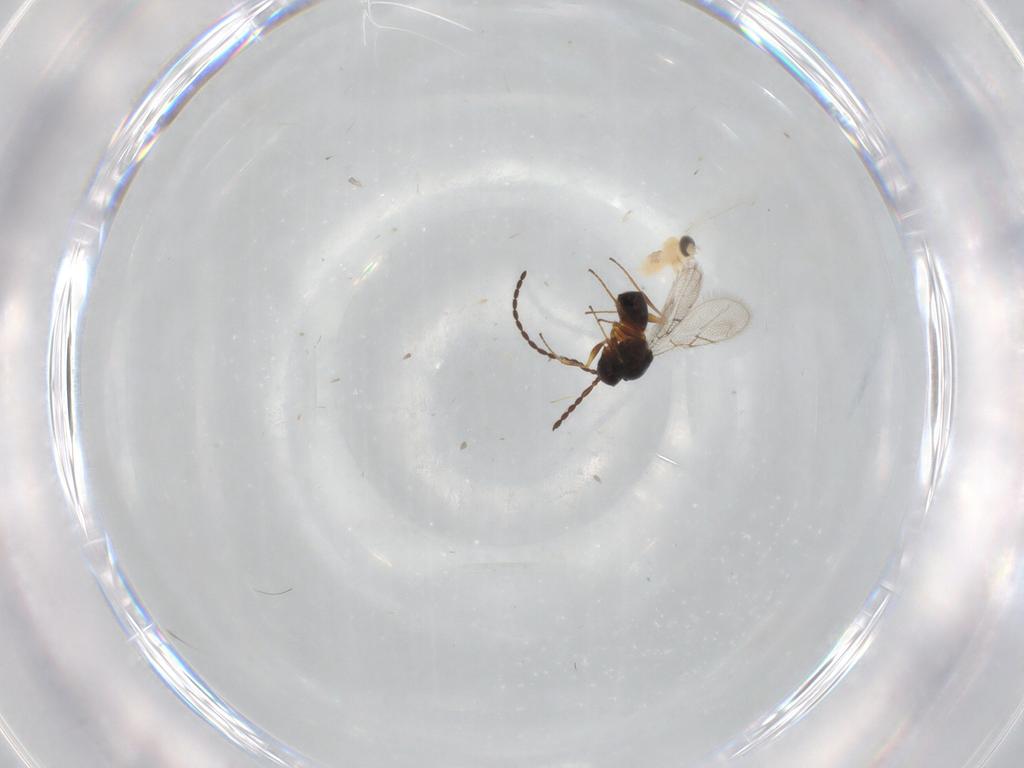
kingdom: Animalia
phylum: Arthropoda
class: Insecta
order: Diptera
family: Cecidomyiidae
